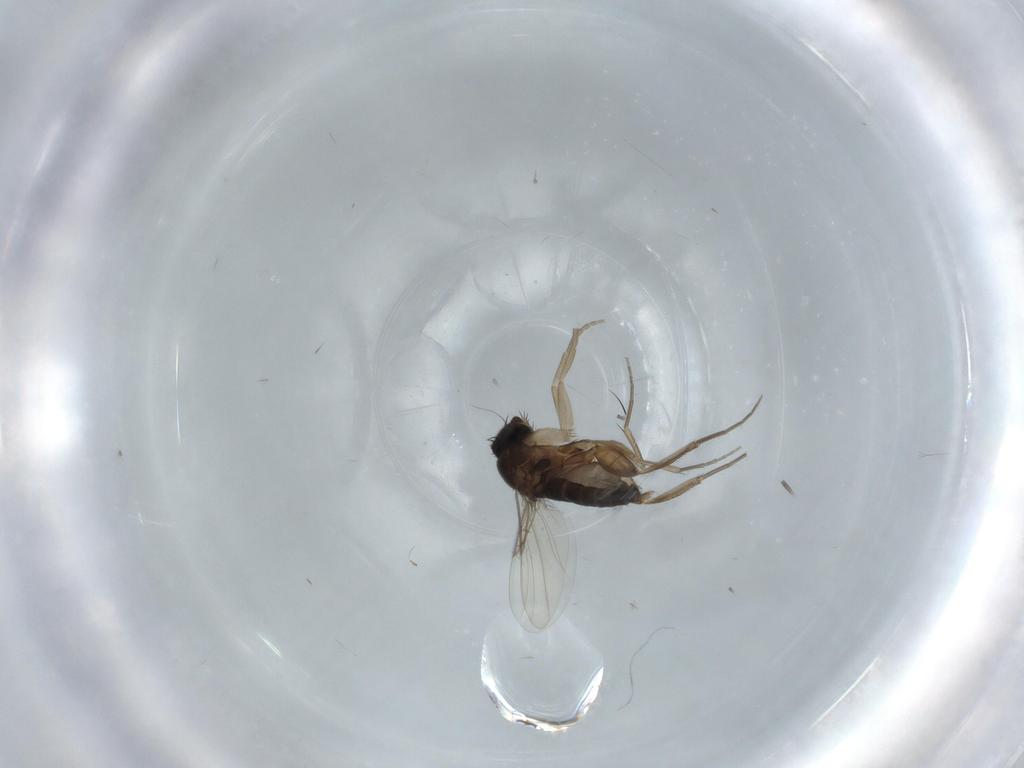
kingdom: Animalia
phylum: Arthropoda
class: Insecta
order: Diptera
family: Phoridae
